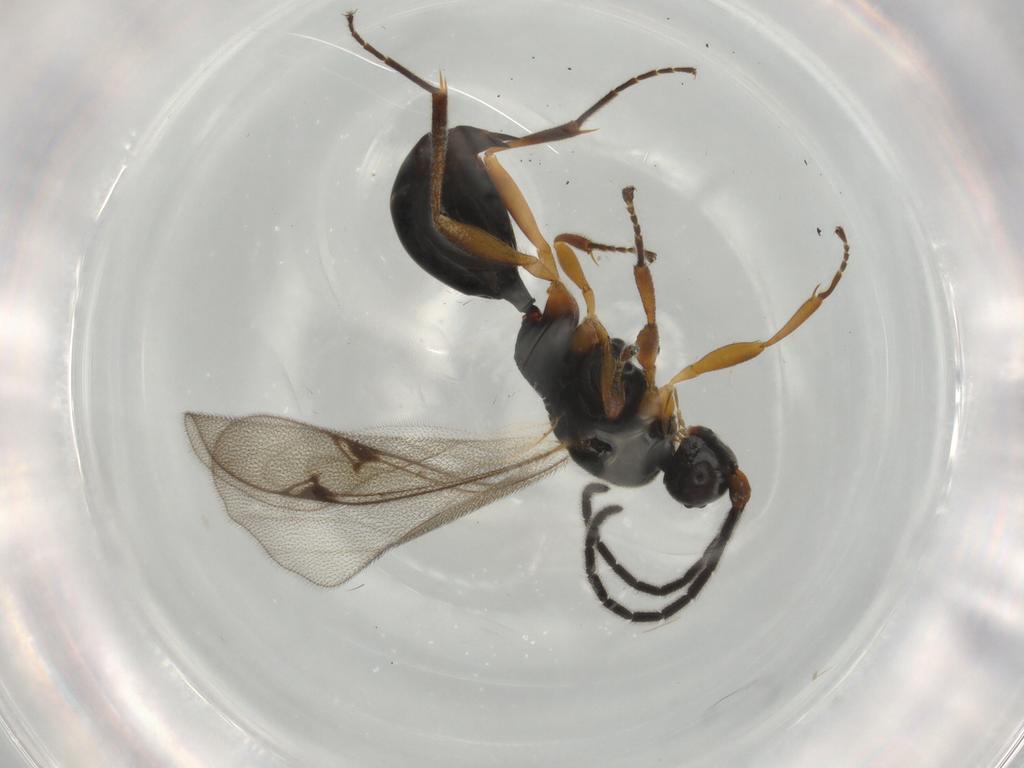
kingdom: Animalia
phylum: Arthropoda
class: Insecta
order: Hymenoptera
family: Proctotrupidae
